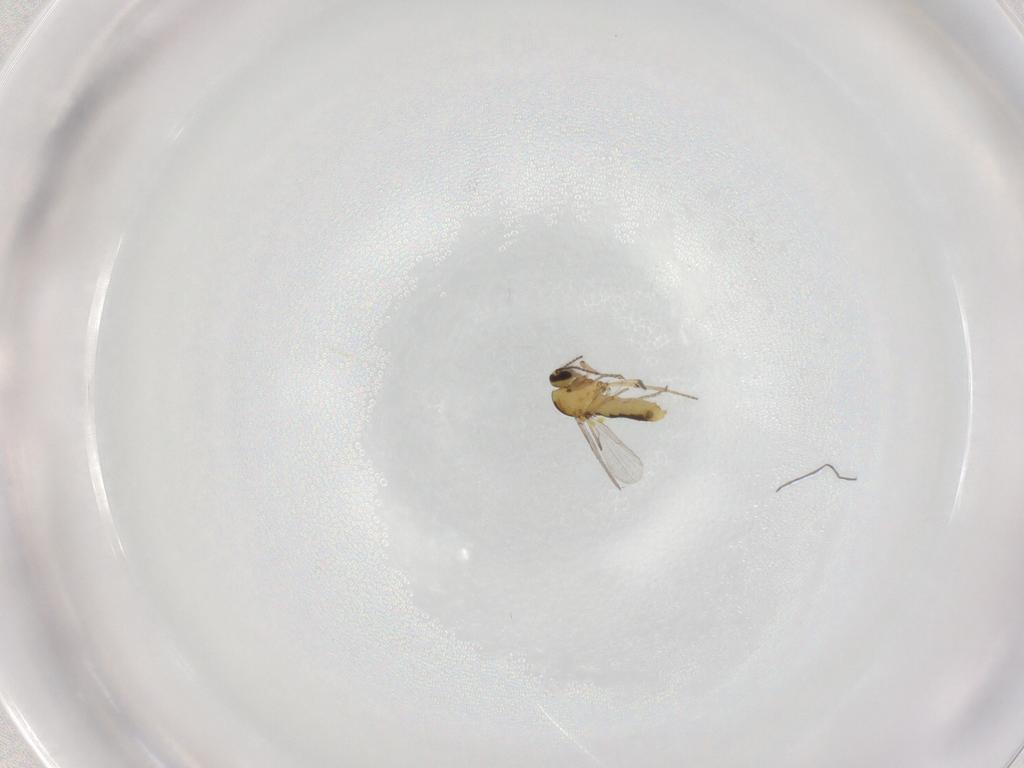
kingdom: Animalia
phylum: Arthropoda
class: Insecta
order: Diptera
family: Ceratopogonidae
